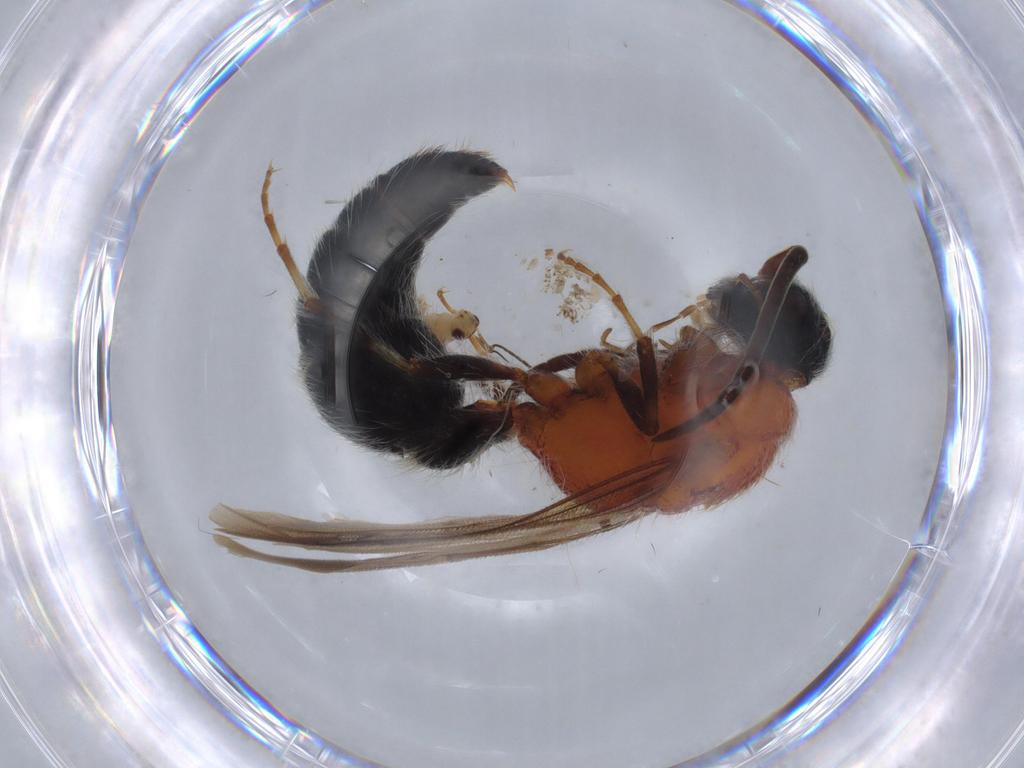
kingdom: Animalia
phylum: Arthropoda
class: Insecta
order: Hymenoptera
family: Mymaridae
